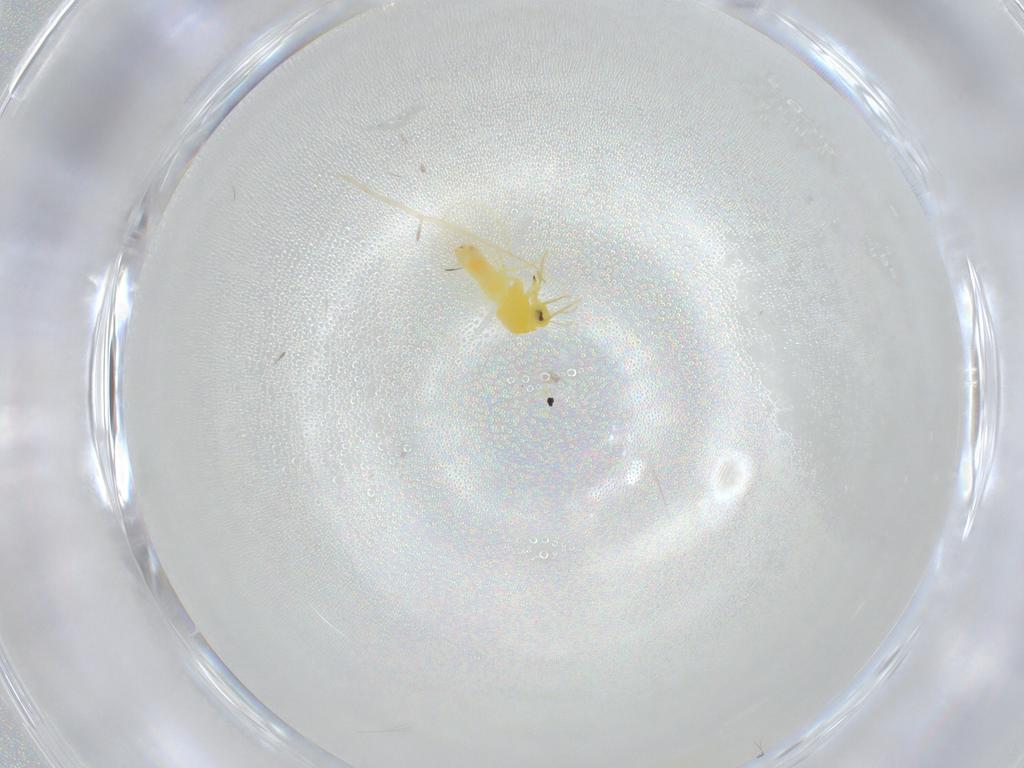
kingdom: Animalia
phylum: Arthropoda
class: Insecta
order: Hemiptera
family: Aleyrodidae
